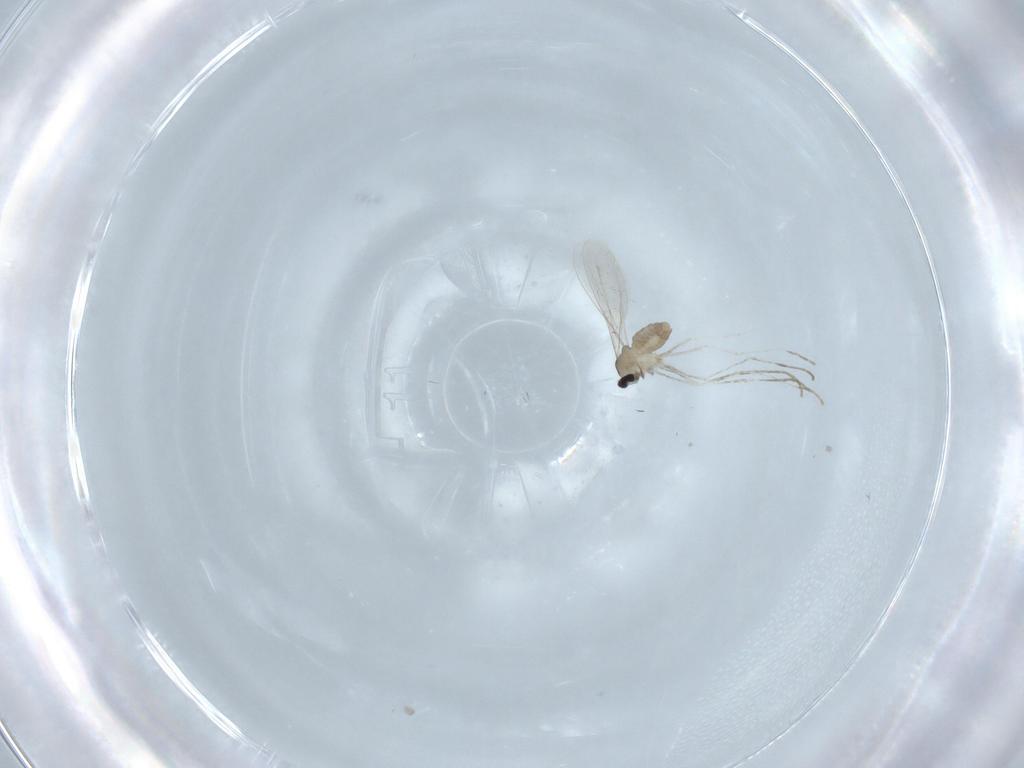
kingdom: Animalia
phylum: Arthropoda
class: Insecta
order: Diptera
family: Cecidomyiidae
